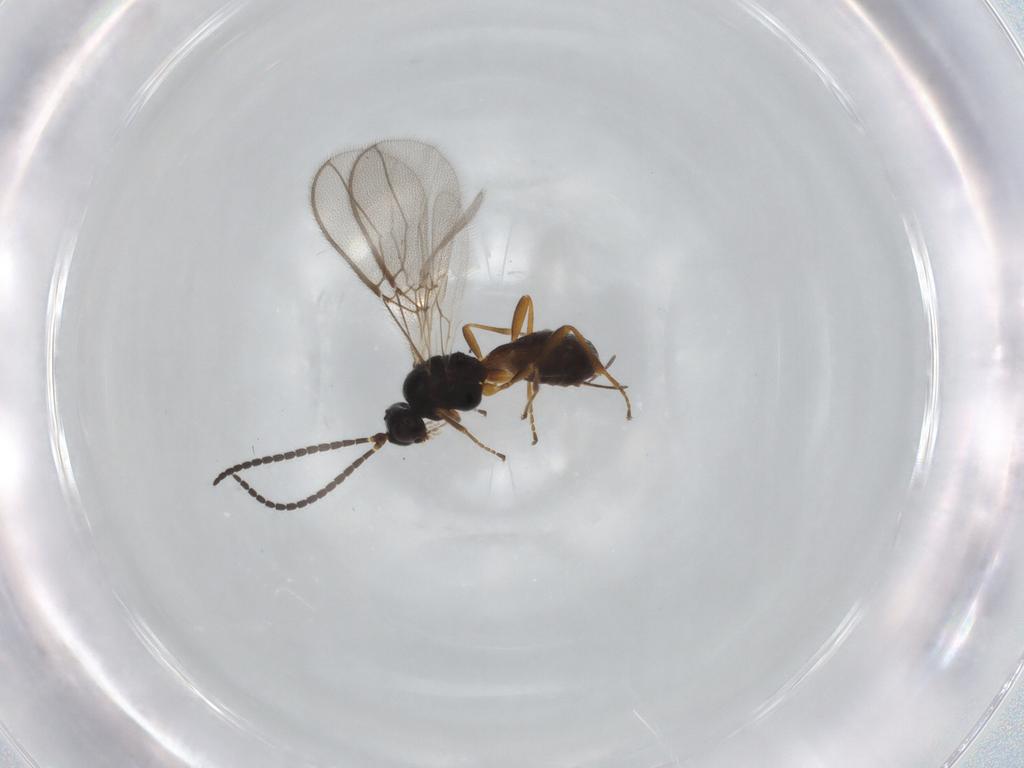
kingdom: Animalia
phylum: Arthropoda
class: Insecta
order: Hymenoptera
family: Braconidae
